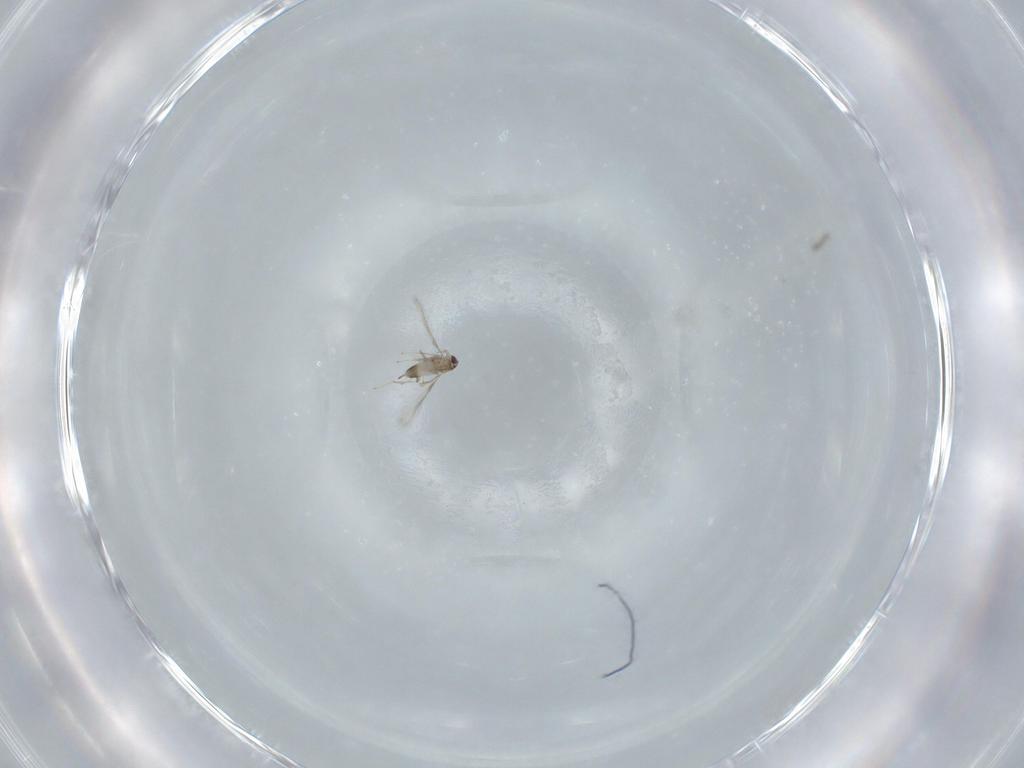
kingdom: Animalia
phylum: Arthropoda
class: Insecta
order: Hymenoptera
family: Mymaridae
